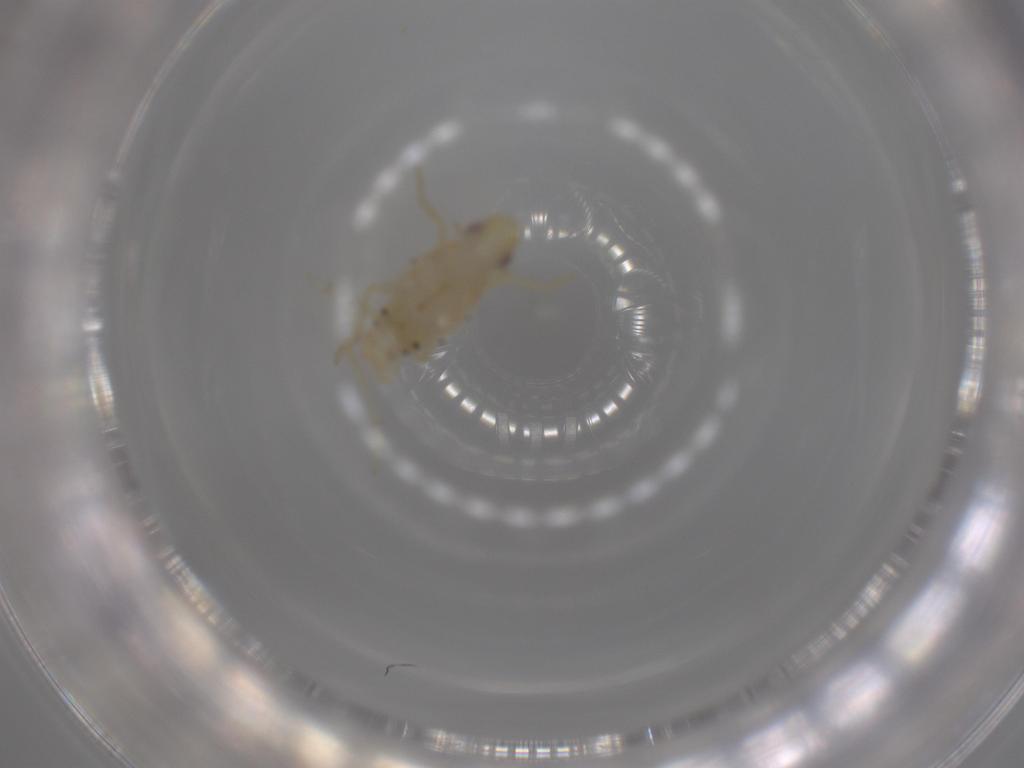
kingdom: Animalia
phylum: Arthropoda
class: Insecta
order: Hemiptera
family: Tropiduchidae
